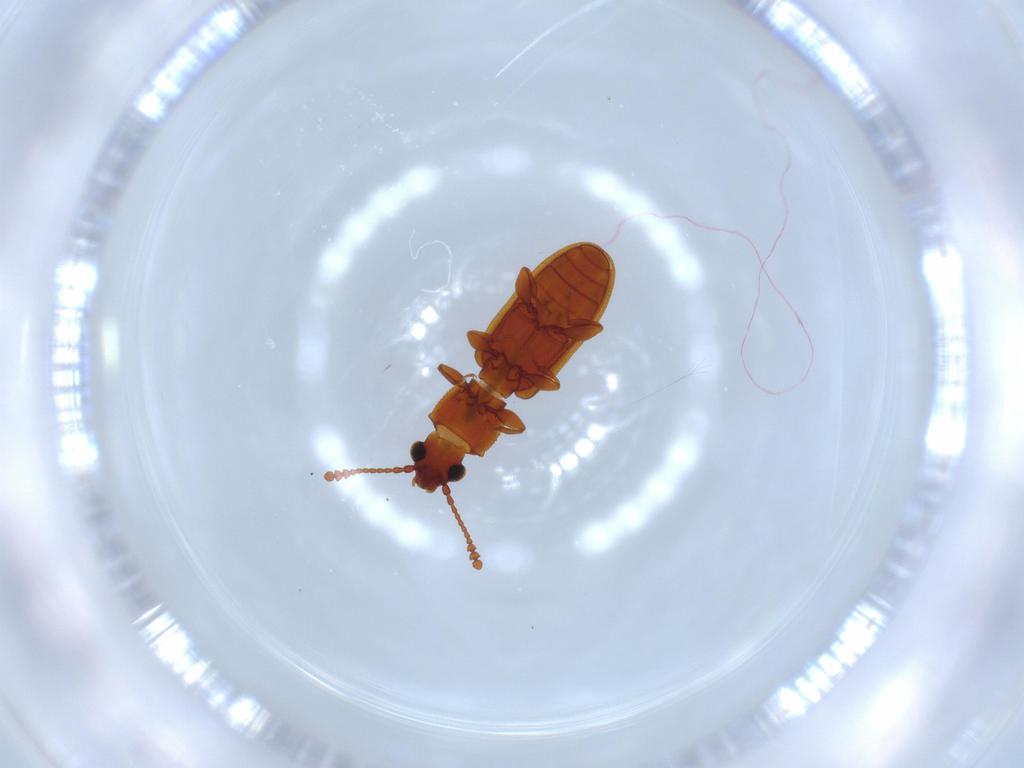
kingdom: Animalia
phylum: Arthropoda
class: Insecta
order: Coleoptera
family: Silvanidae
